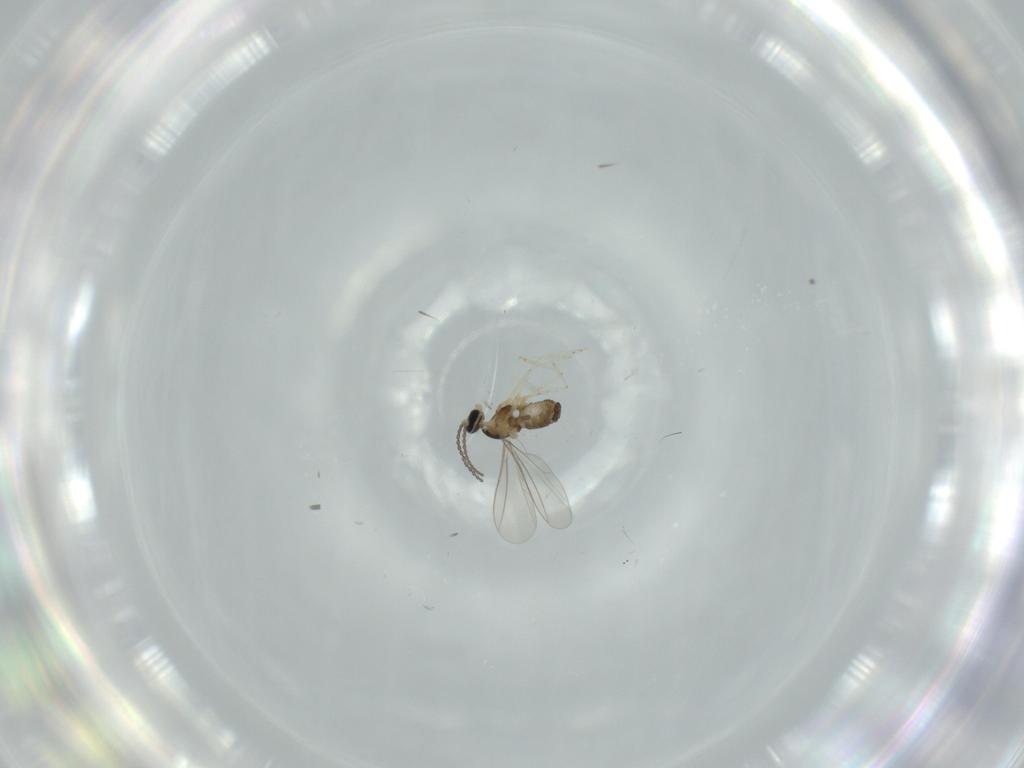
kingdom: Animalia
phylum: Arthropoda
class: Insecta
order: Diptera
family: Cecidomyiidae
